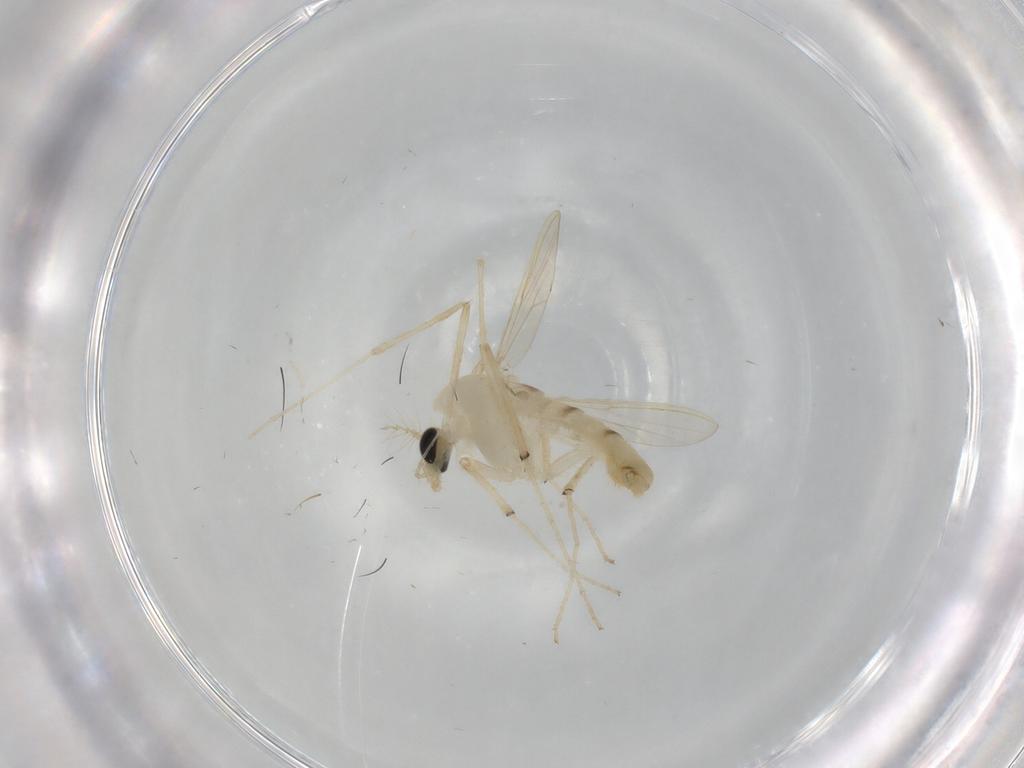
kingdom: Animalia
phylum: Arthropoda
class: Insecta
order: Diptera
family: Chironomidae
